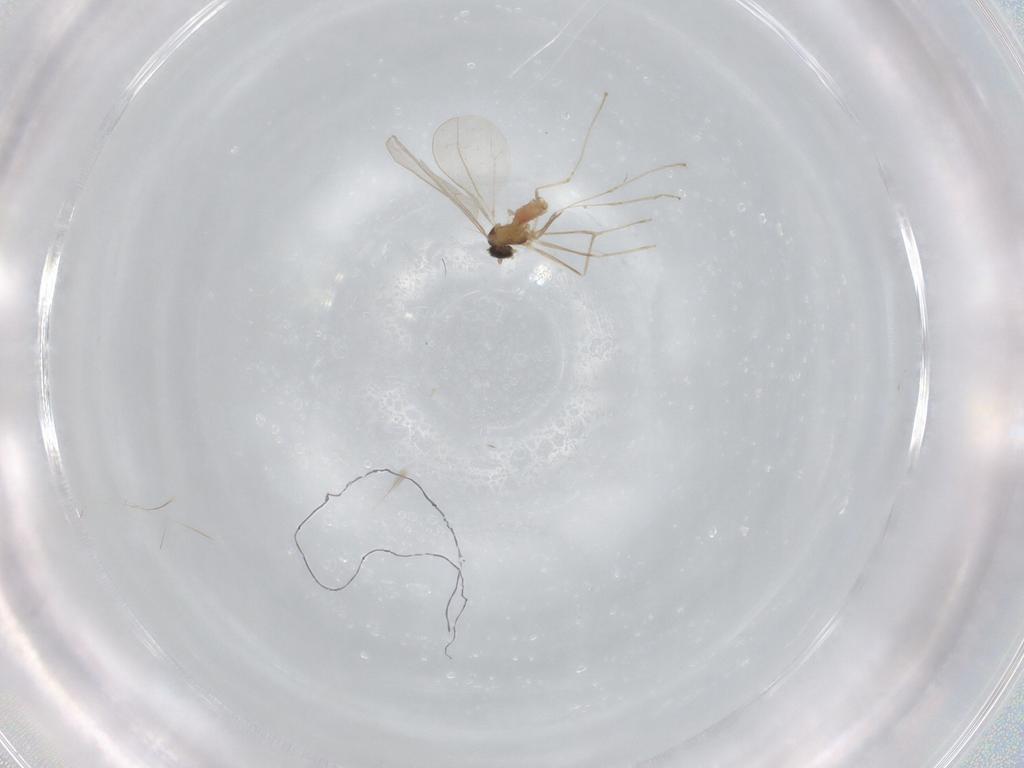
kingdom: Animalia
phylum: Arthropoda
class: Insecta
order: Diptera
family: Cecidomyiidae
